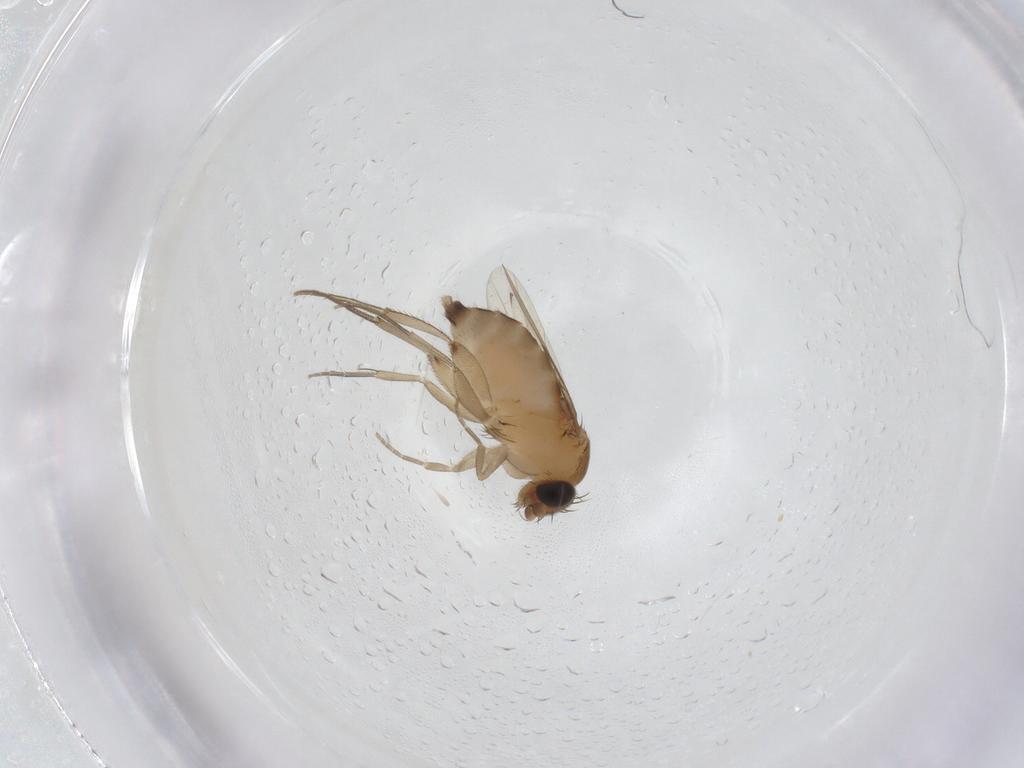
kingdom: Animalia
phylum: Arthropoda
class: Insecta
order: Diptera
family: Phoridae
